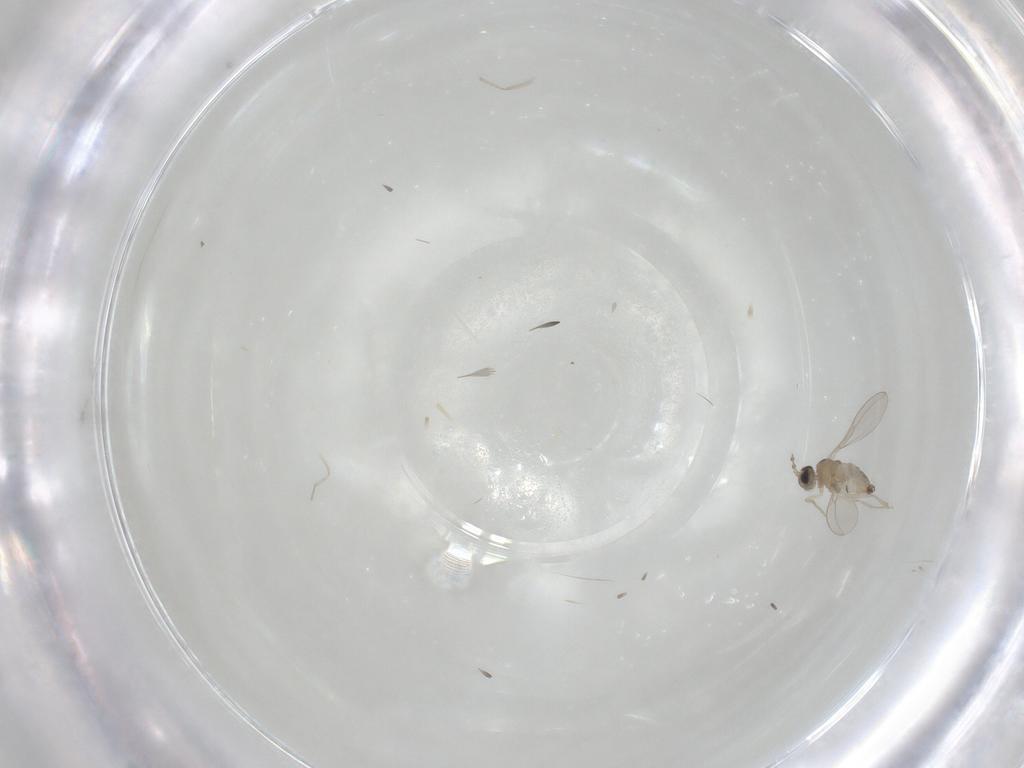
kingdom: Animalia
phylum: Arthropoda
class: Insecta
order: Diptera
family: Cecidomyiidae
